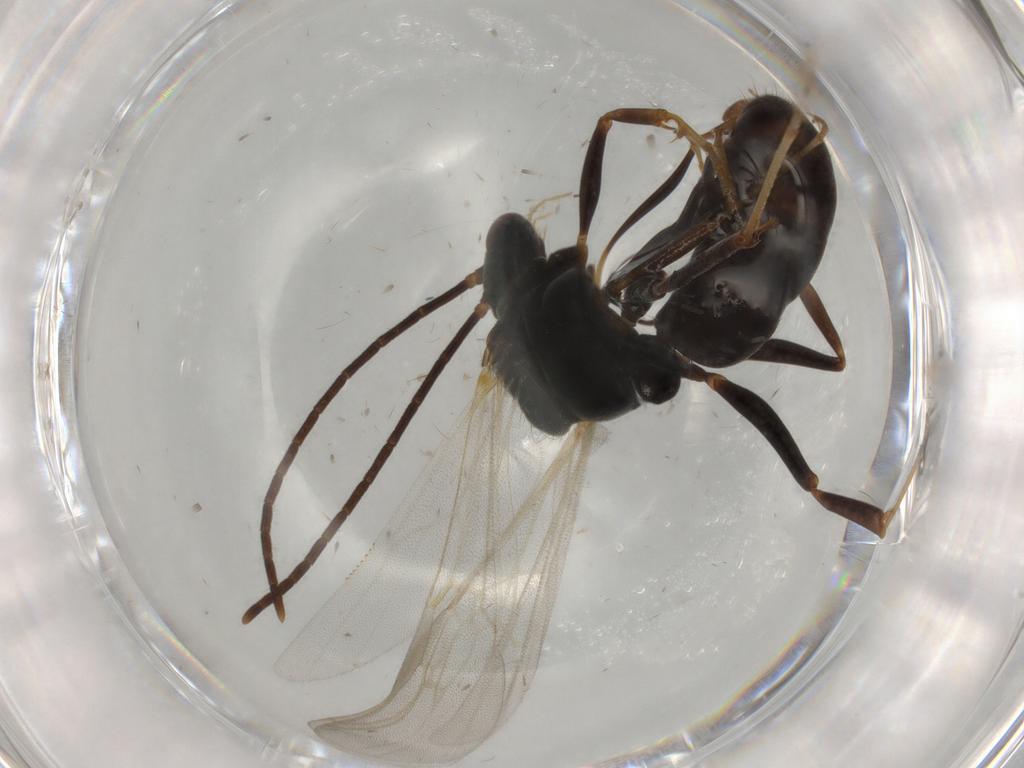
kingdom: Animalia
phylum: Arthropoda
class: Insecta
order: Hymenoptera
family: Formicidae
